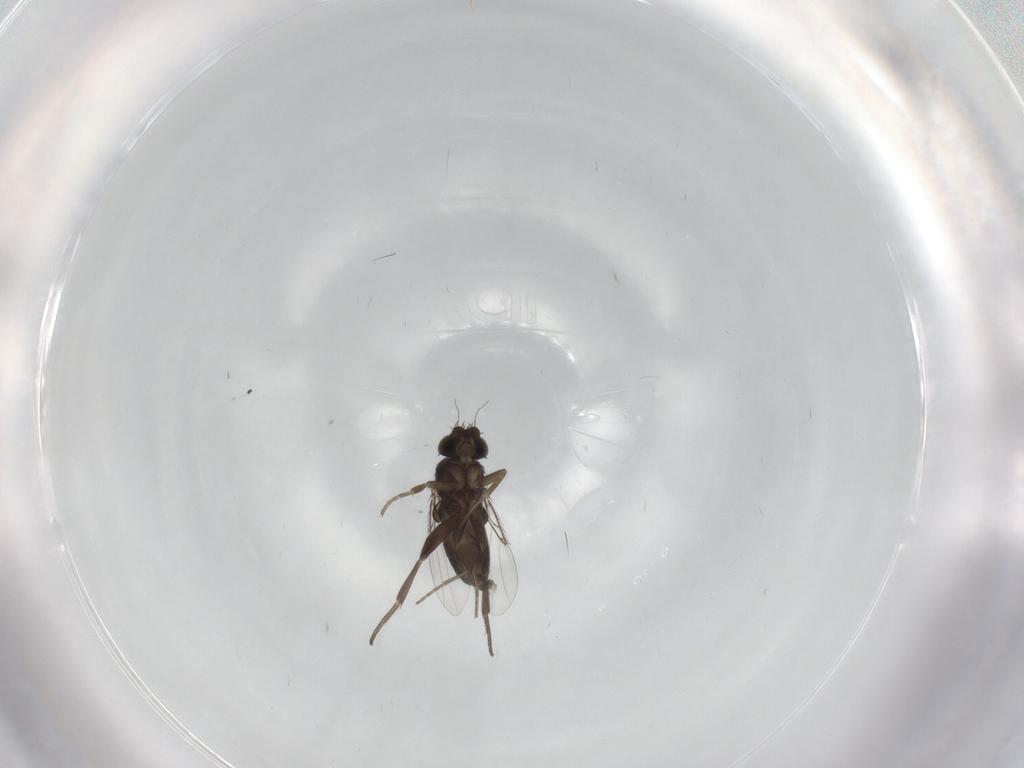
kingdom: Animalia
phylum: Arthropoda
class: Insecta
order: Diptera
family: Phoridae
